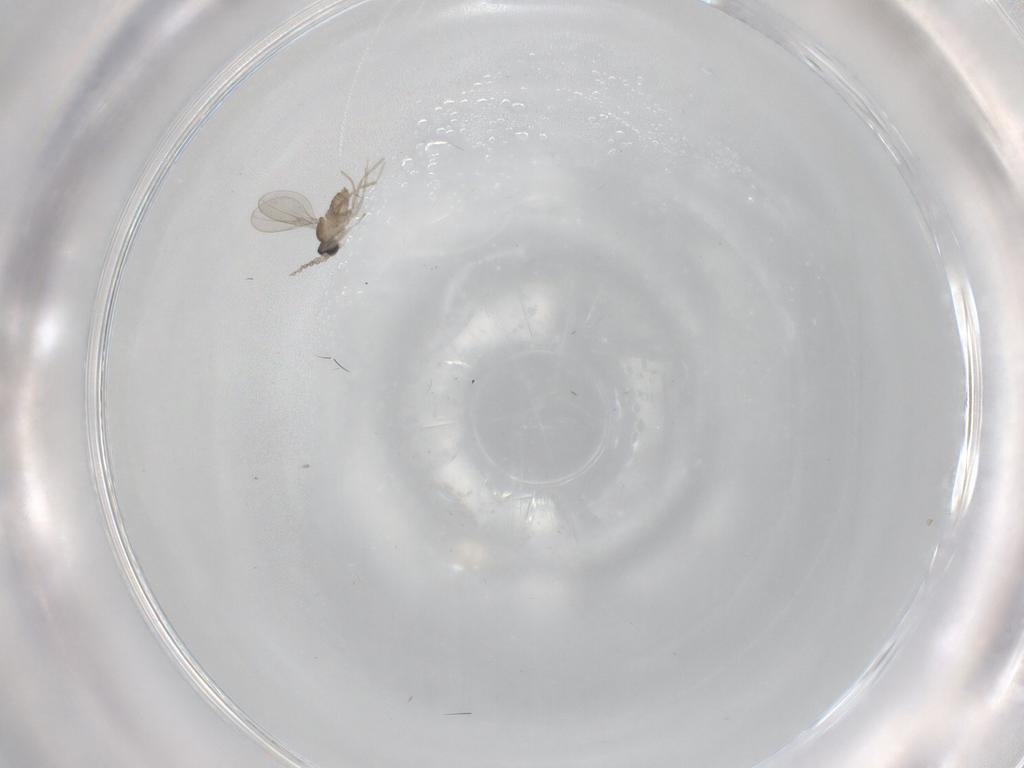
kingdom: Animalia
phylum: Arthropoda
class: Insecta
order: Diptera
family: Cecidomyiidae
